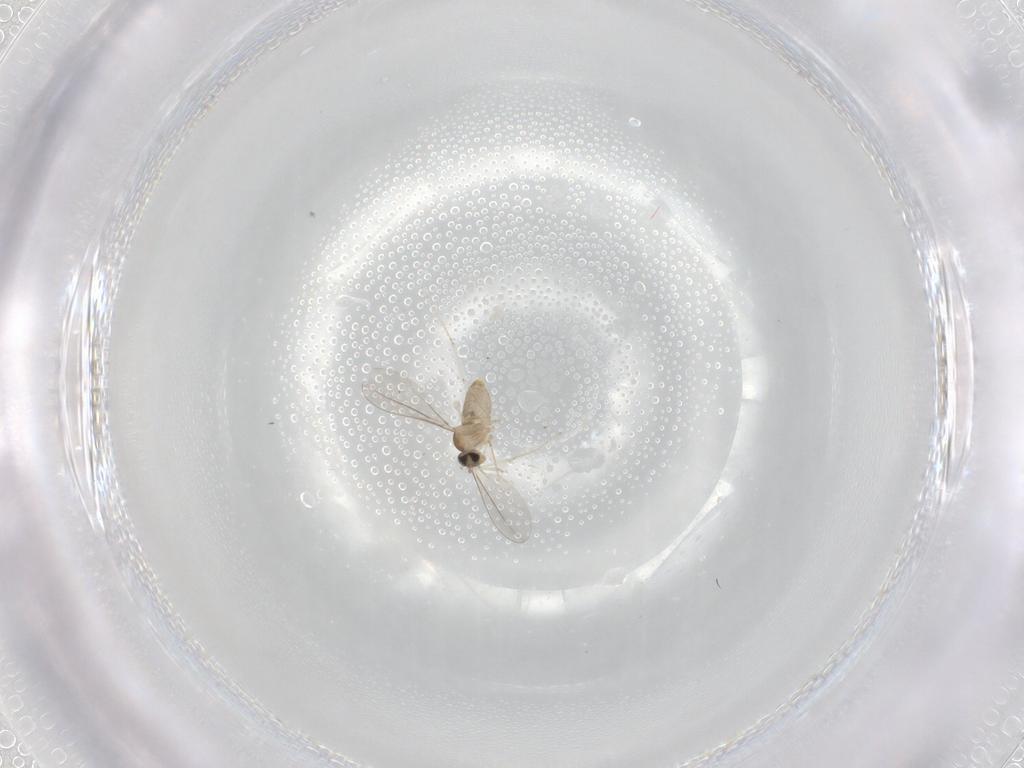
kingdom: Animalia
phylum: Arthropoda
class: Insecta
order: Diptera
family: Cecidomyiidae
